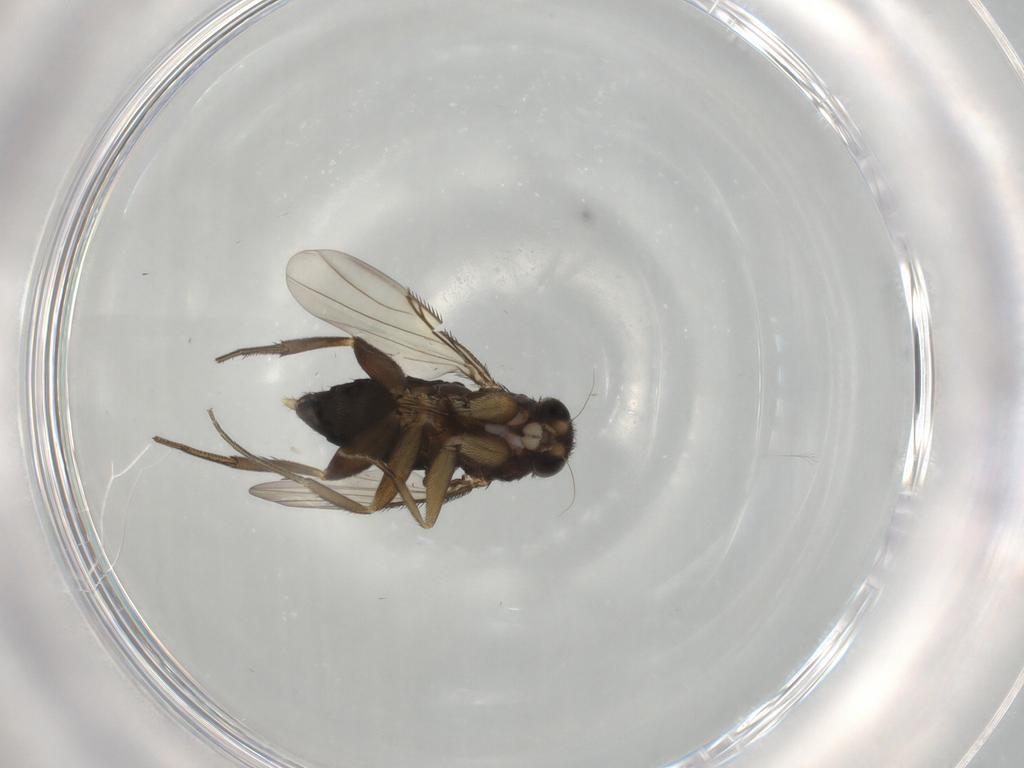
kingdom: Animalia
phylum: Arthropoda
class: Insecta
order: Diptera
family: Phoridae
